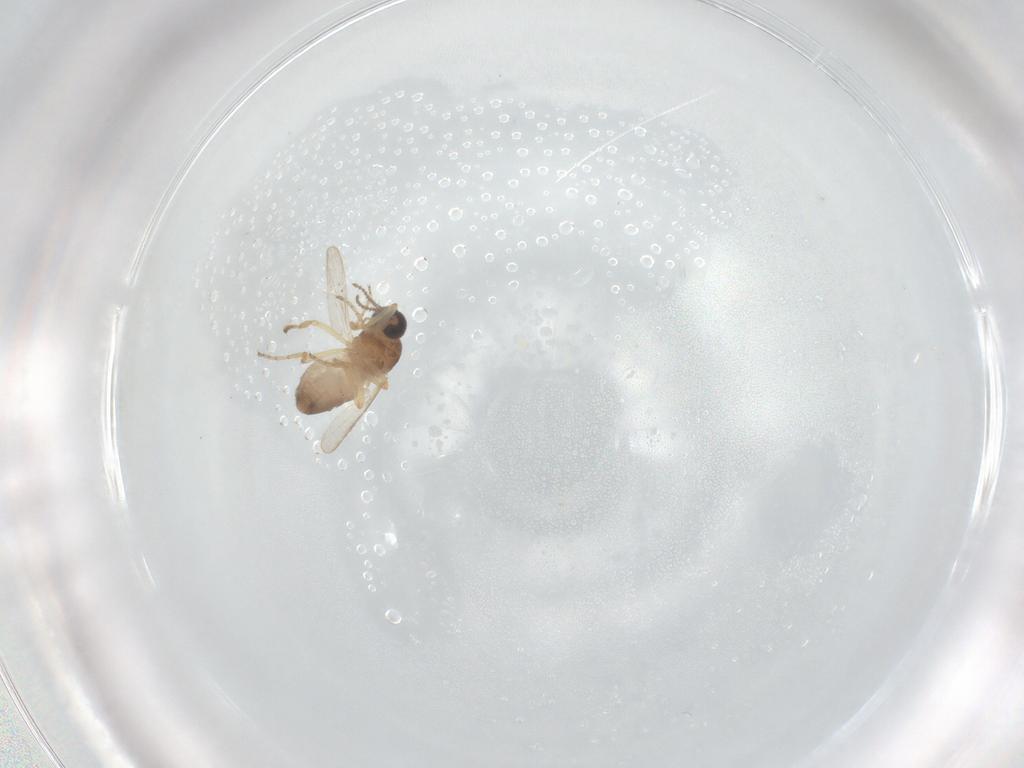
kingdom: Animalia
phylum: Arthropoda
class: Insecta
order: Diptera
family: Ceratopogonidae
